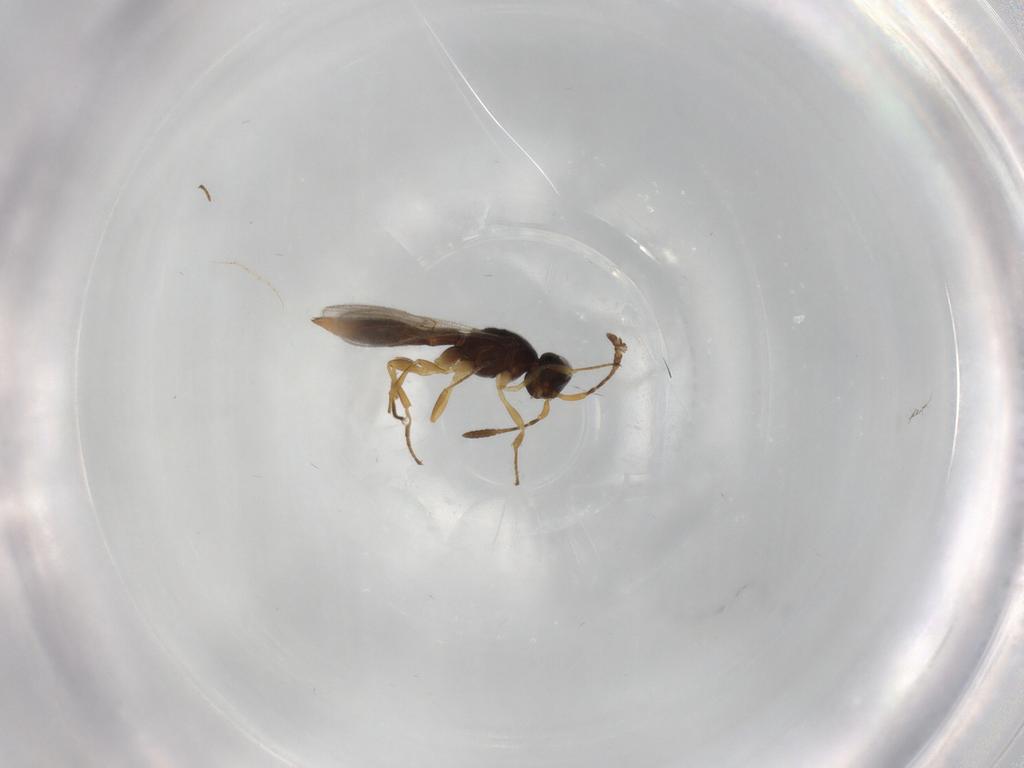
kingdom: Animalia
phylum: Arthropoda
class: Insecta
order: Hymenoptera
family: Scelionidae
